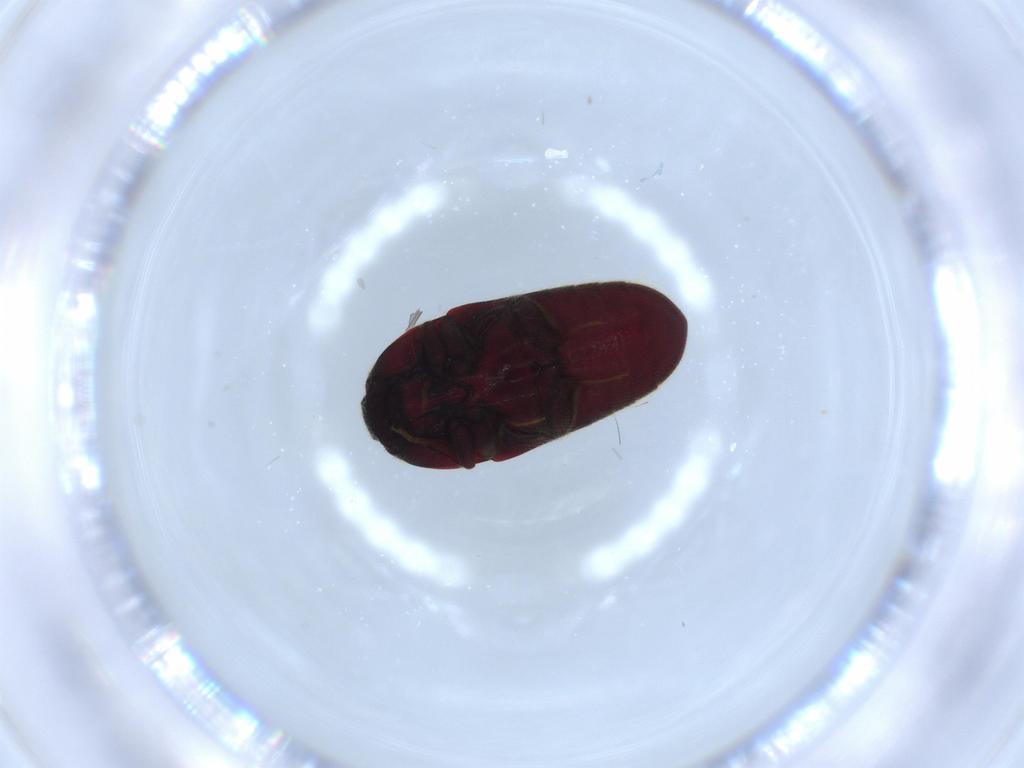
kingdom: Animalia
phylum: Arthropoda
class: Insecta
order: Coleoptera
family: Throscidae
